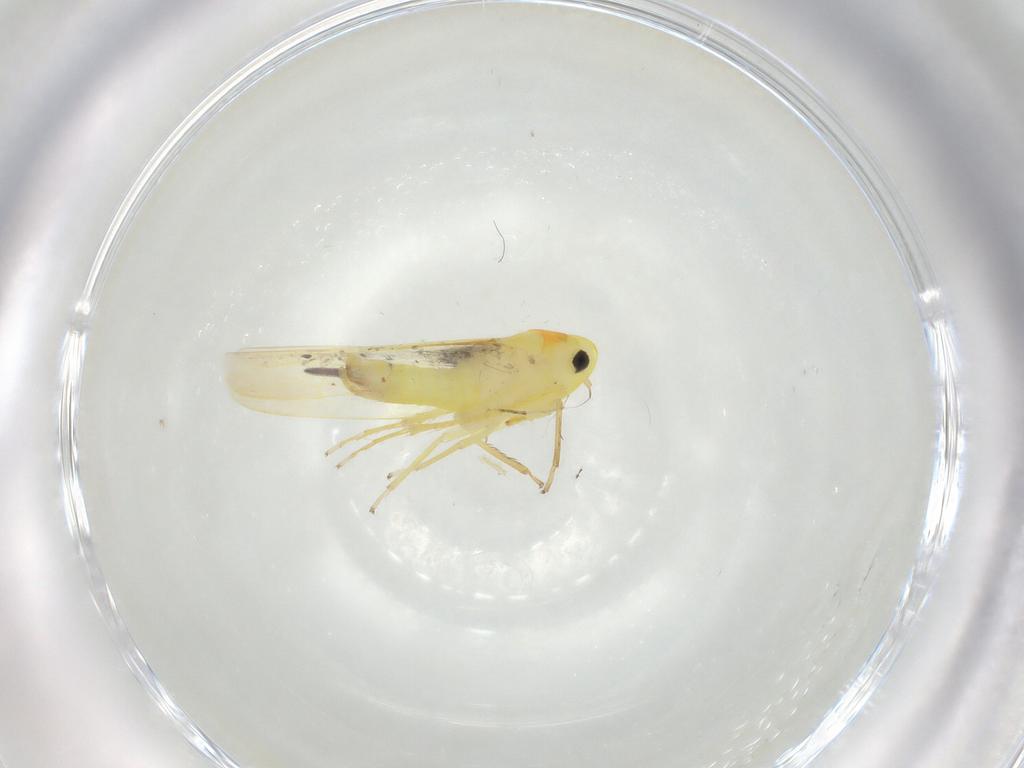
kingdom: Animalia
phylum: Arthropoda
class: Insecta
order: Hemiptera
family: Cicadellidae
